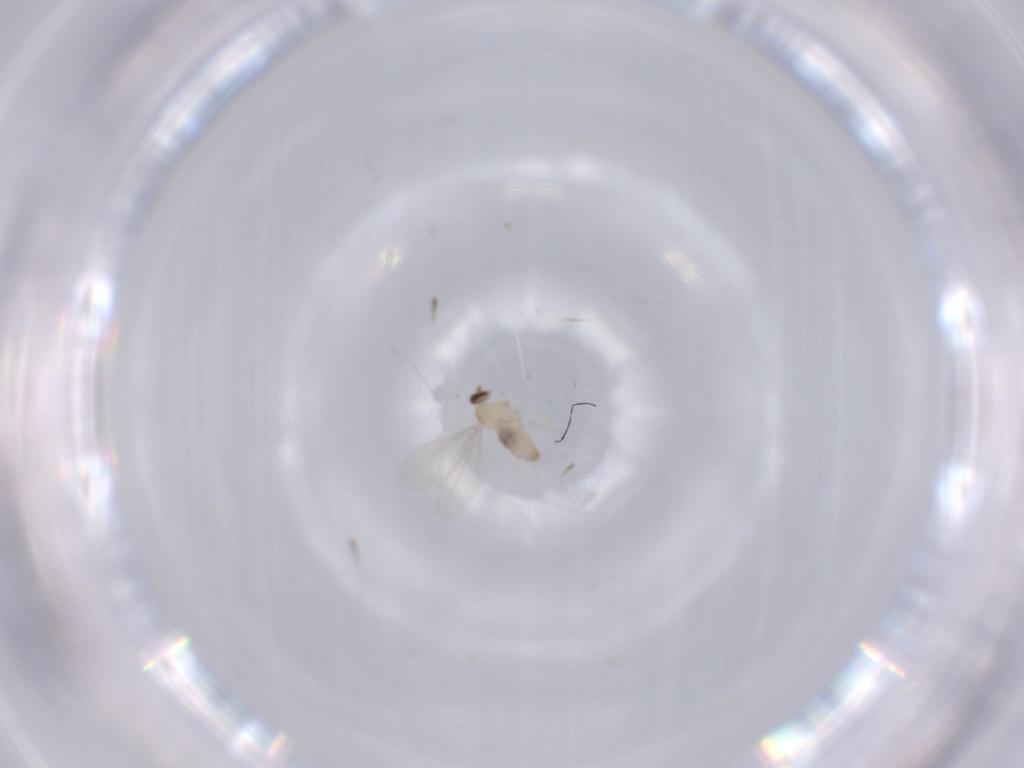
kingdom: Animalia
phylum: Arthropoda
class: Insecta
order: Diptera
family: Cecidomyiidae
